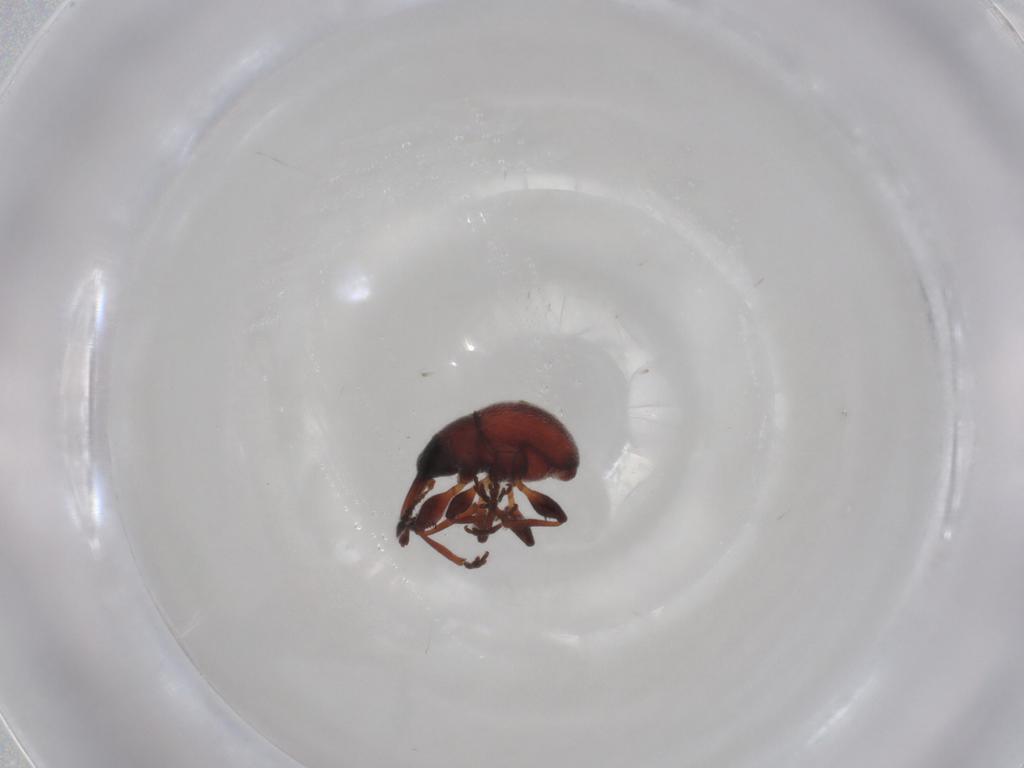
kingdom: Animalia
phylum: Arthropoda
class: Insecta
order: Coleoptera
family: Brentidae
